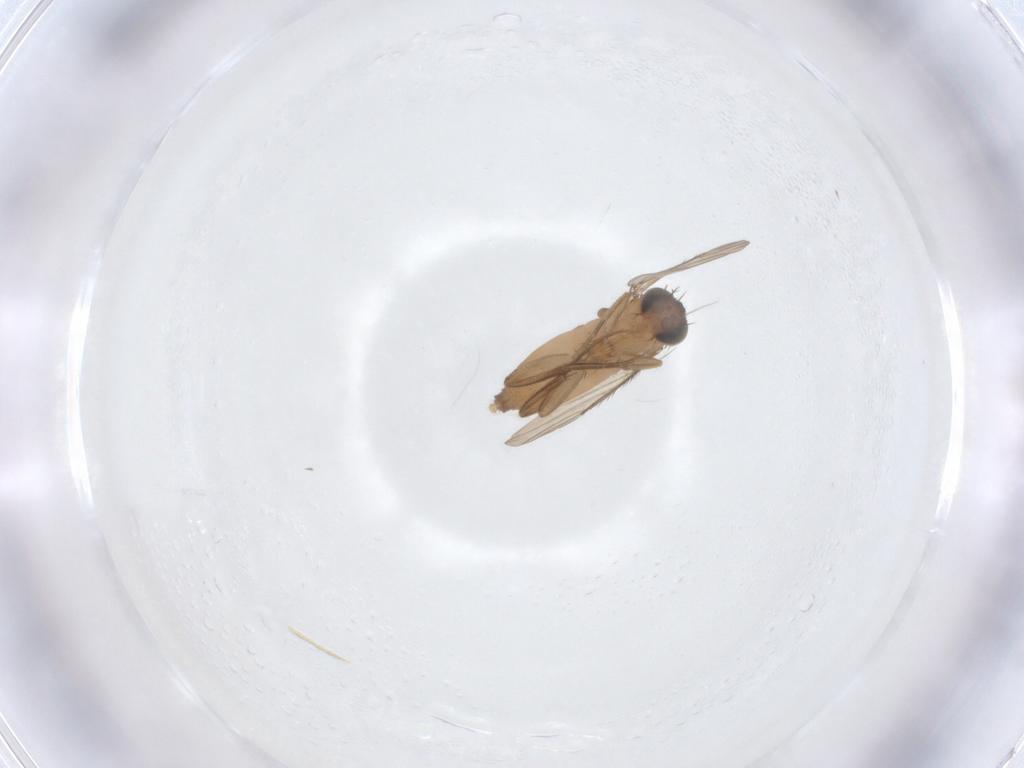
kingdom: Animalia
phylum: Arthropoda
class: Insecta
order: Diptera
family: Phoridae
